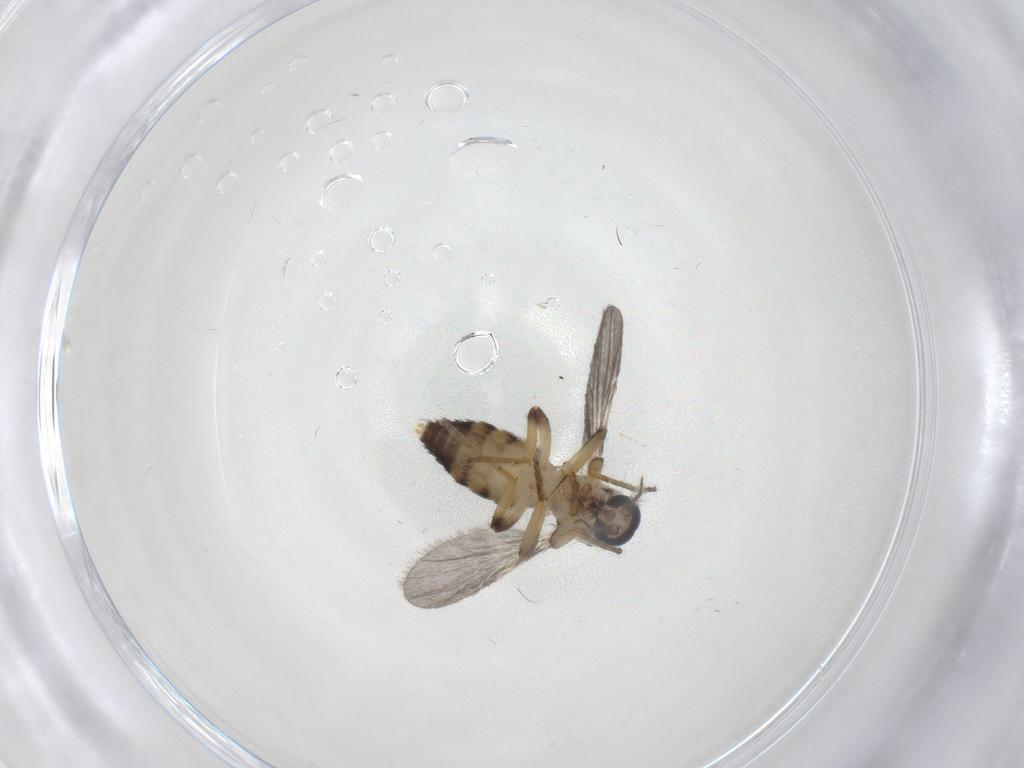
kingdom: Animalia
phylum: Arthropoda
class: Insecta
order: Diptera
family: Ceratopogonidae
